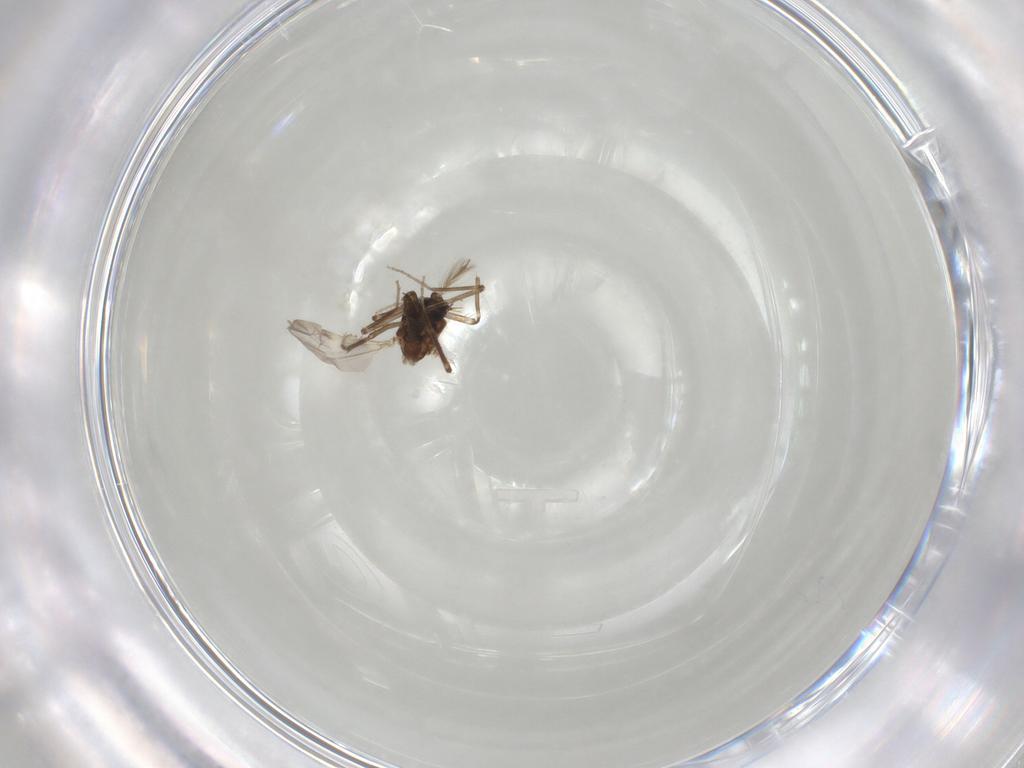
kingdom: Animalia
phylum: Arthropoda
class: Insecta
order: Diptera
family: Ceratopogonidae
